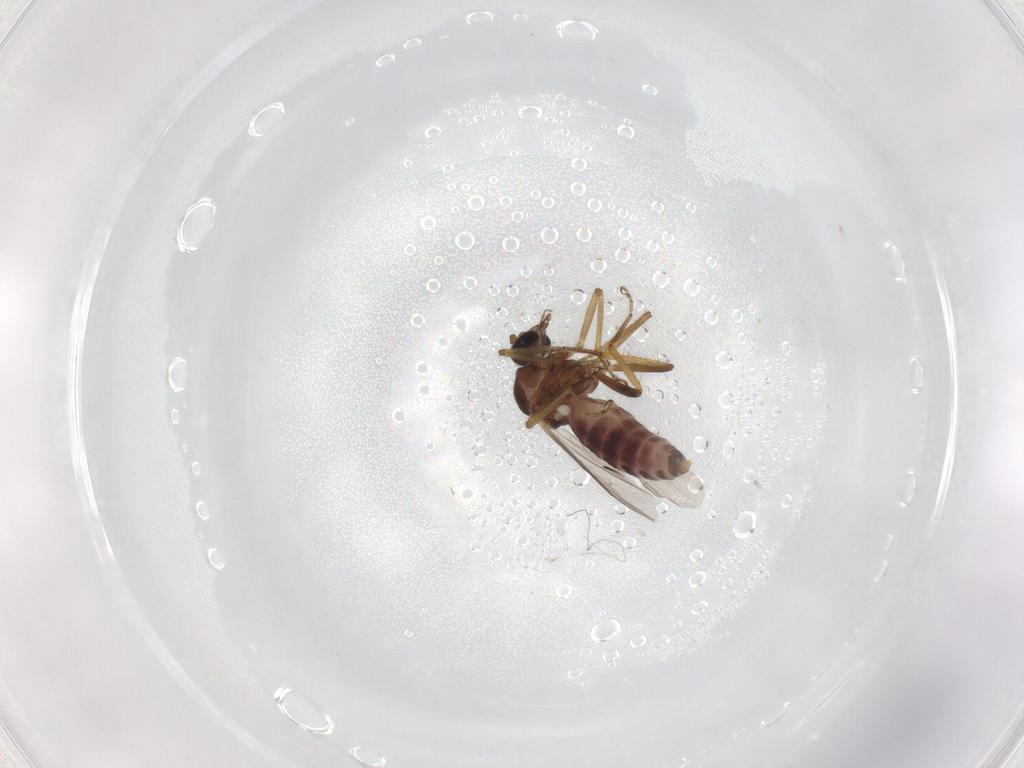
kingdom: Animalia
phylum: Arthropoda
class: Insecta
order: Diptera
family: Ceratopogonidae
